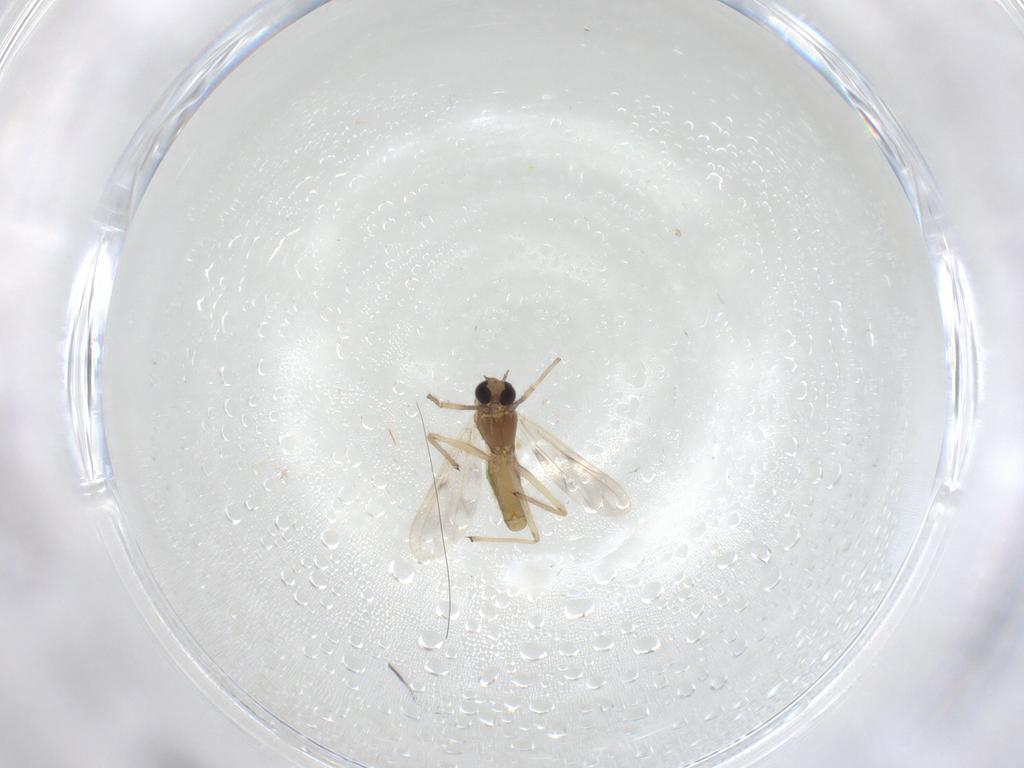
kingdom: Animalia
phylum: Arthropoda
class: Insecta
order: Diptera
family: Chironomidae
